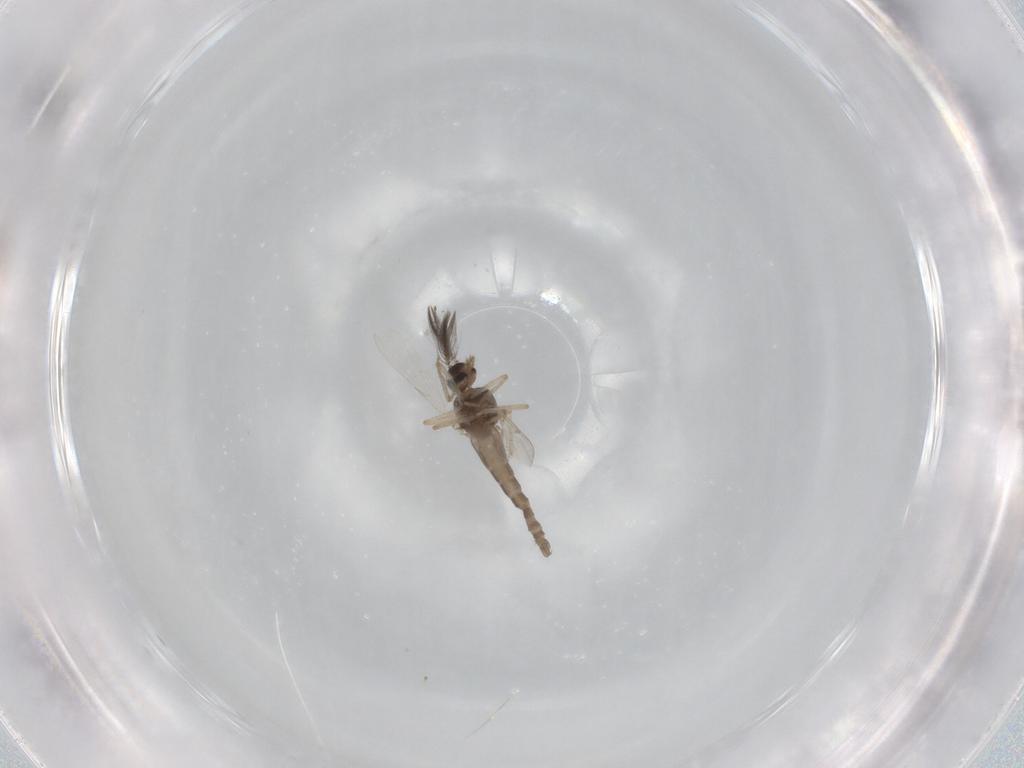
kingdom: Animalia
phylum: Arthropoda
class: Insecta
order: Diptera
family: Ceratopogonidae
